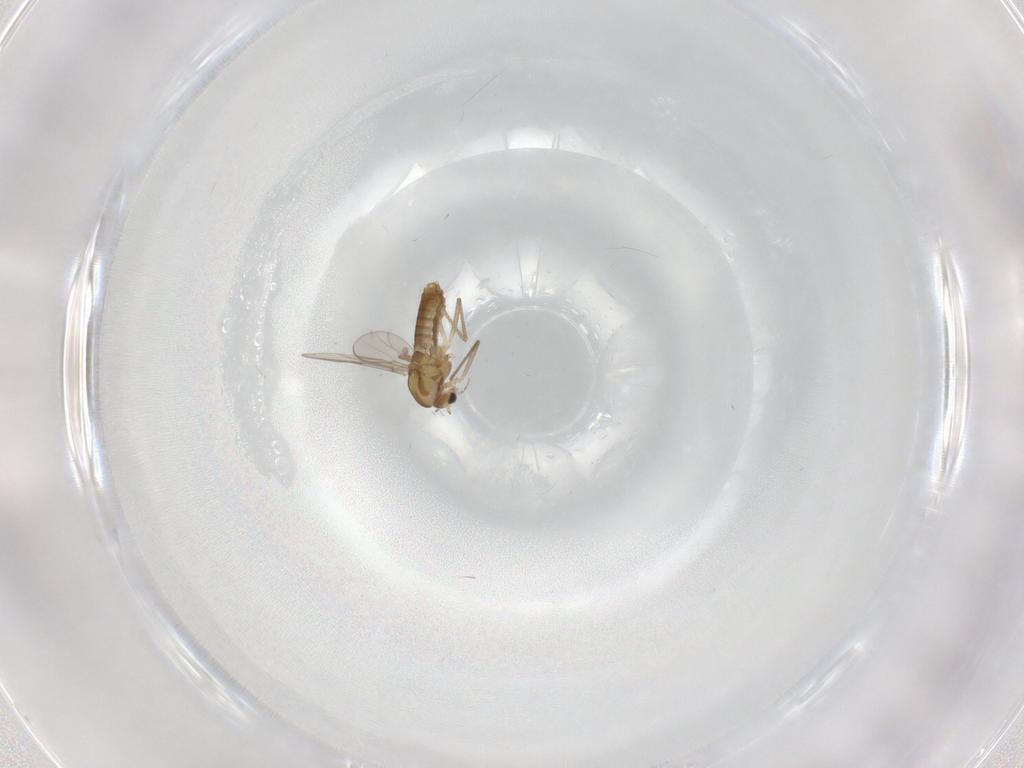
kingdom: Animalia
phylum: Arthropoda
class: Insecta
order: Diptera
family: Chironomidae
